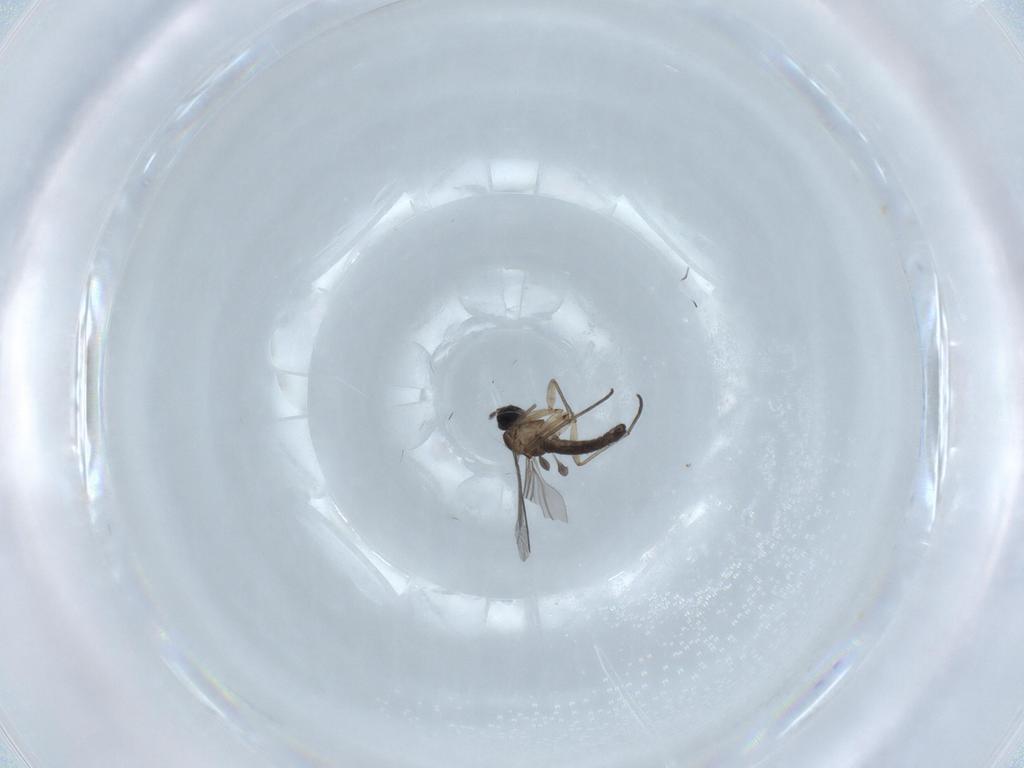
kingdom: Animalia
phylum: Arthropoda
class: Insecta
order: Diptera
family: Sciaridae
